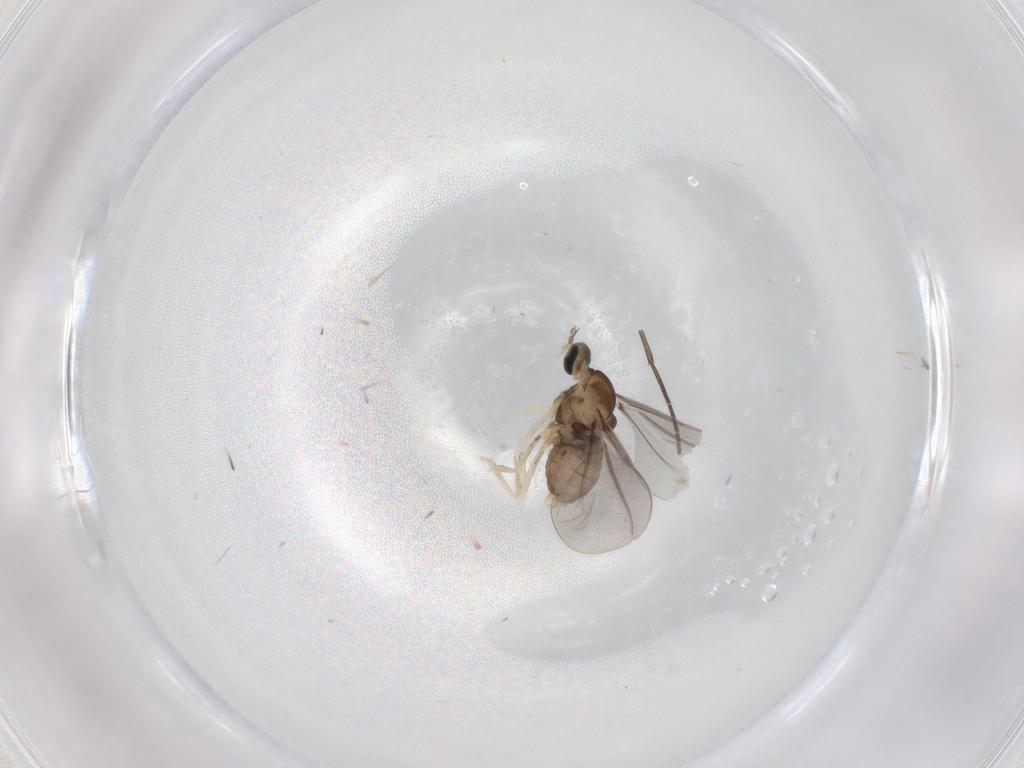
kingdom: Animalia
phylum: Arthropoda
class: Insecta
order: Diptera
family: Cecidomyiidae
